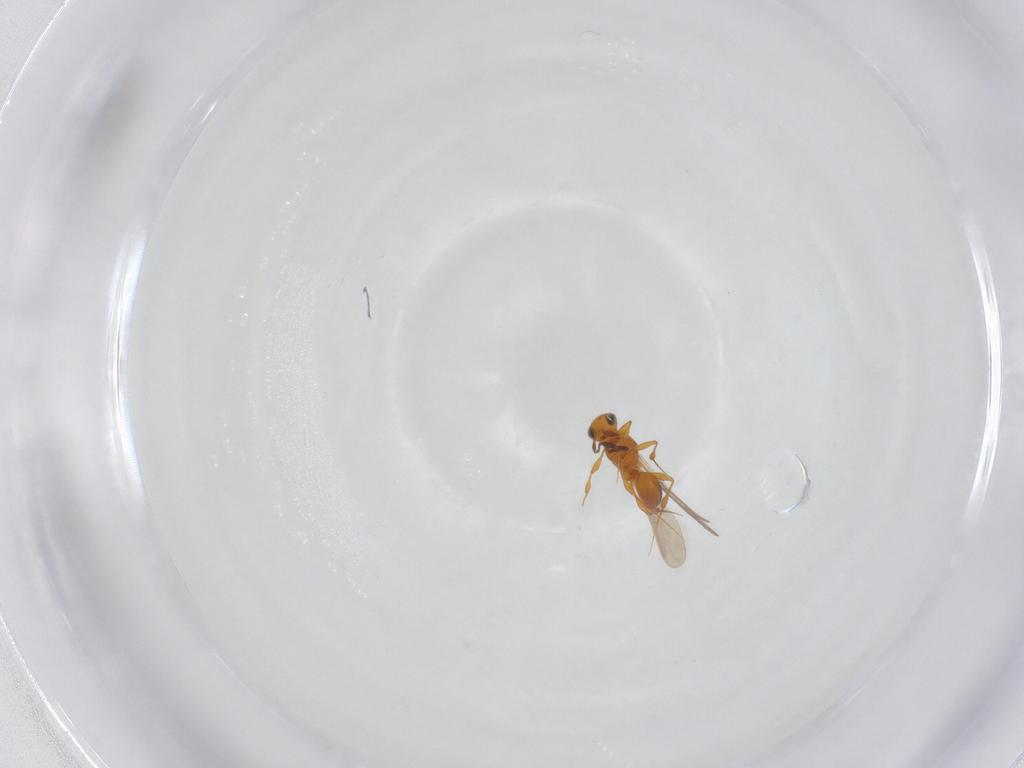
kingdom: Animalia
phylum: Arthropoda
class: Insecta
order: Hymenoptera
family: Platygastridae
